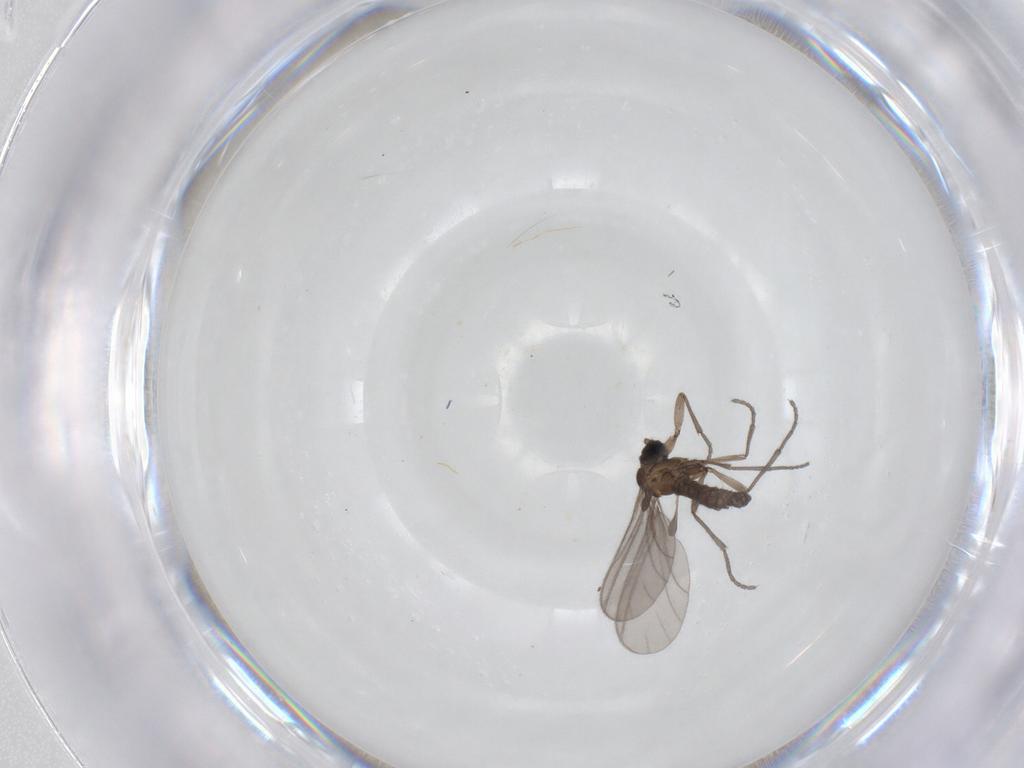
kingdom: Animalia
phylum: Arthropoda
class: Insecta
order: Diptera
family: Sciaridae
